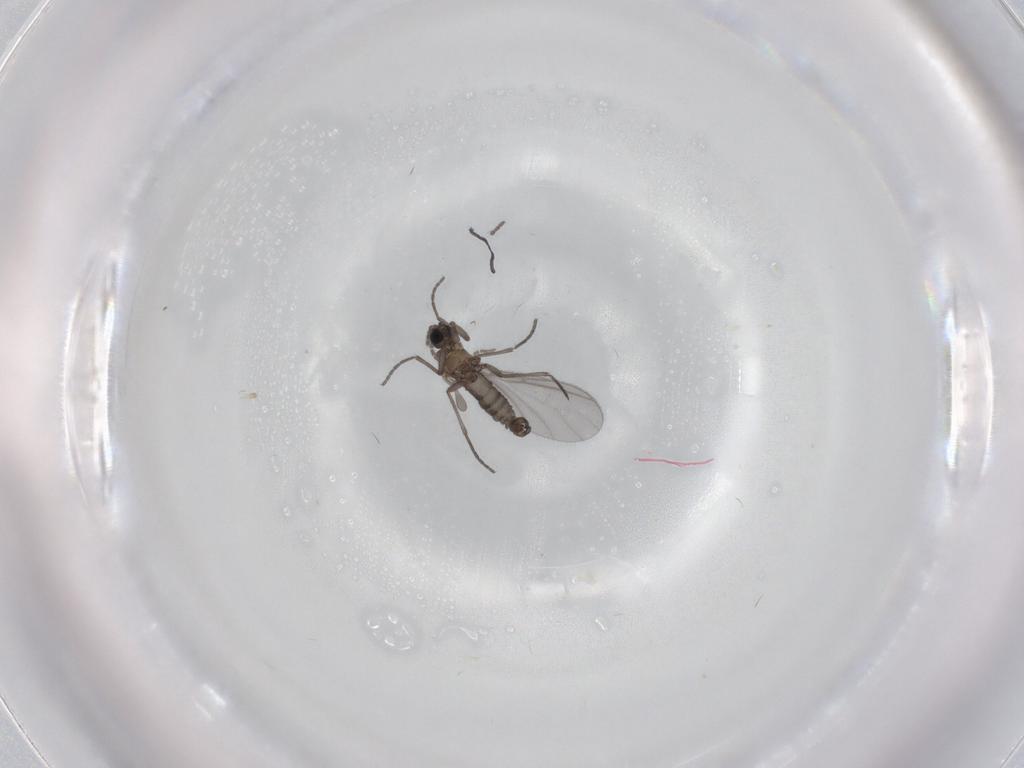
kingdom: Animalia
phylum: Arthropoda
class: Insecta
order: Diptera
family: Sciaridae
